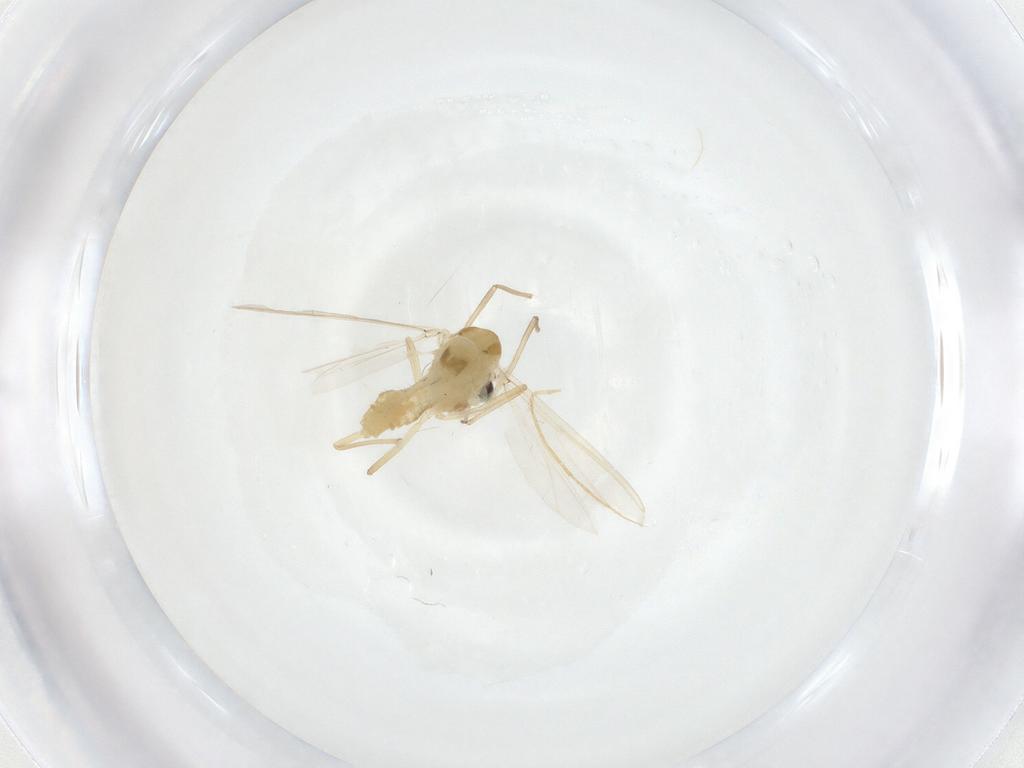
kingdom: Animalia
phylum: Arthropoda
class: Insecta
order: Diptera
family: Chironomidae
